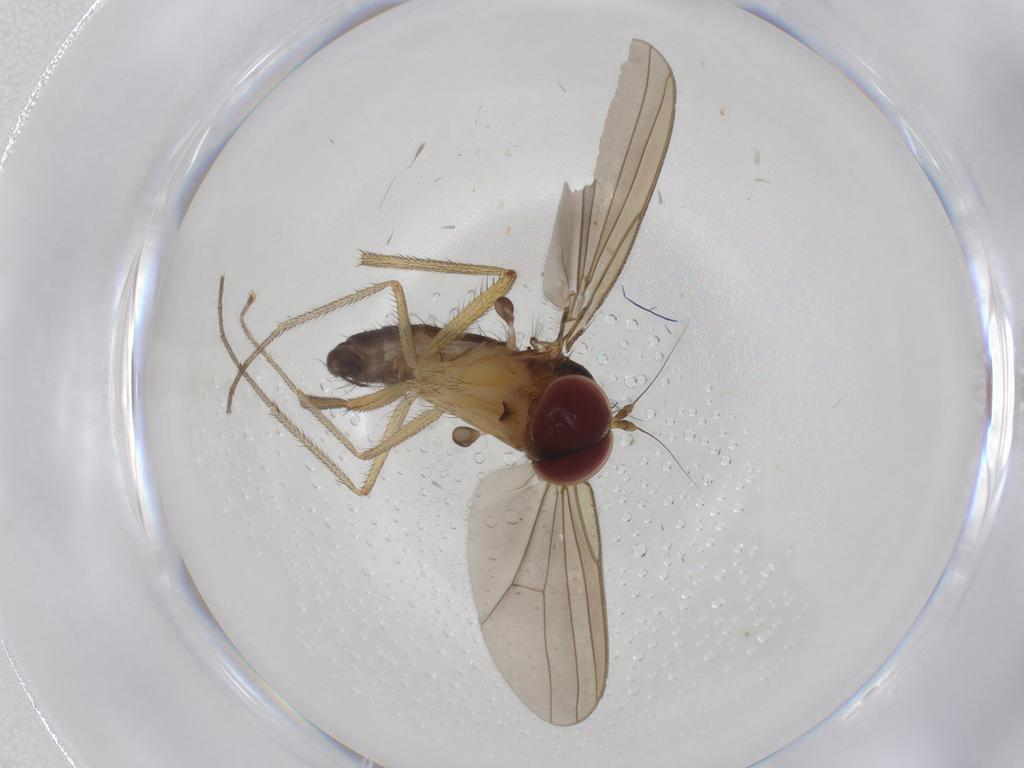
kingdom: Animalia
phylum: Arthropoda
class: Insecta
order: Diptera
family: Dolichopodidae
